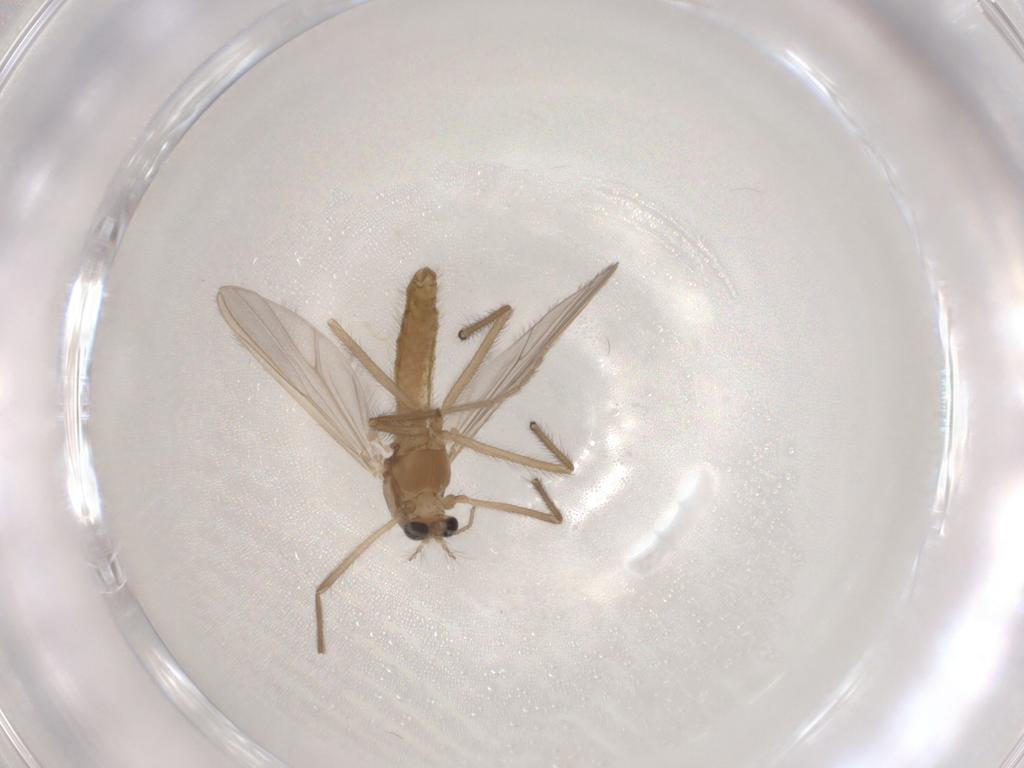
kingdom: Animalia
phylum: Arthropoda
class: Insecta
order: Diptera
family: Chironomidae
